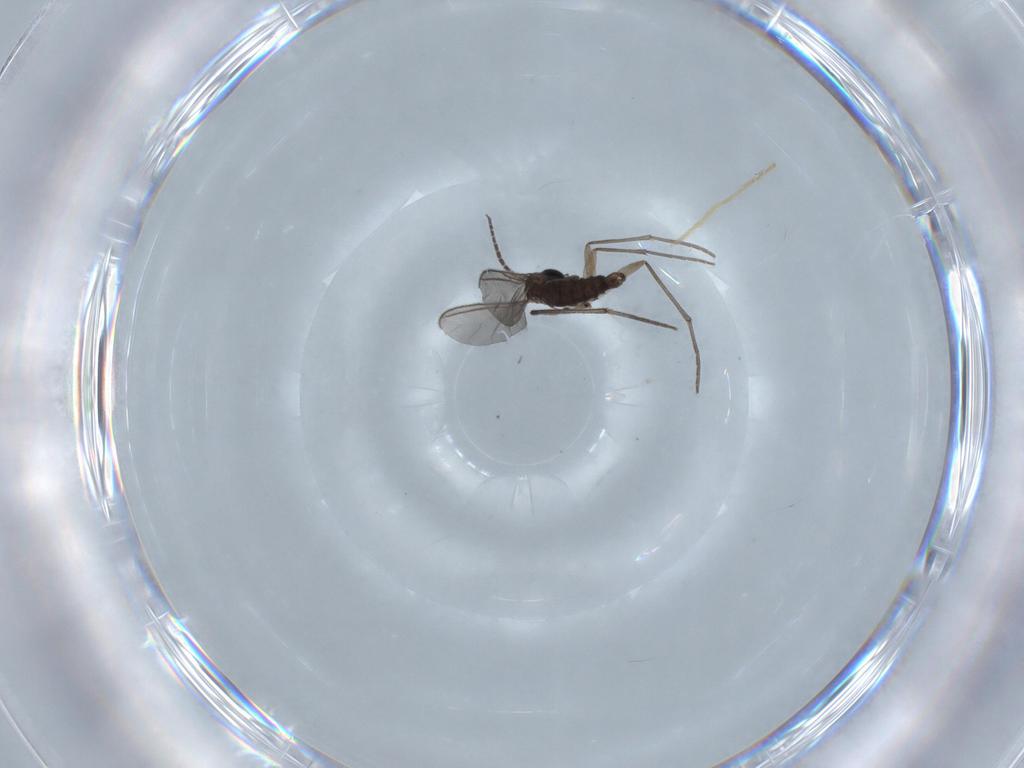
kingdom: Animalia
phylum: Arthropoda
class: Insecta
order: Diptera
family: Sciaridae
